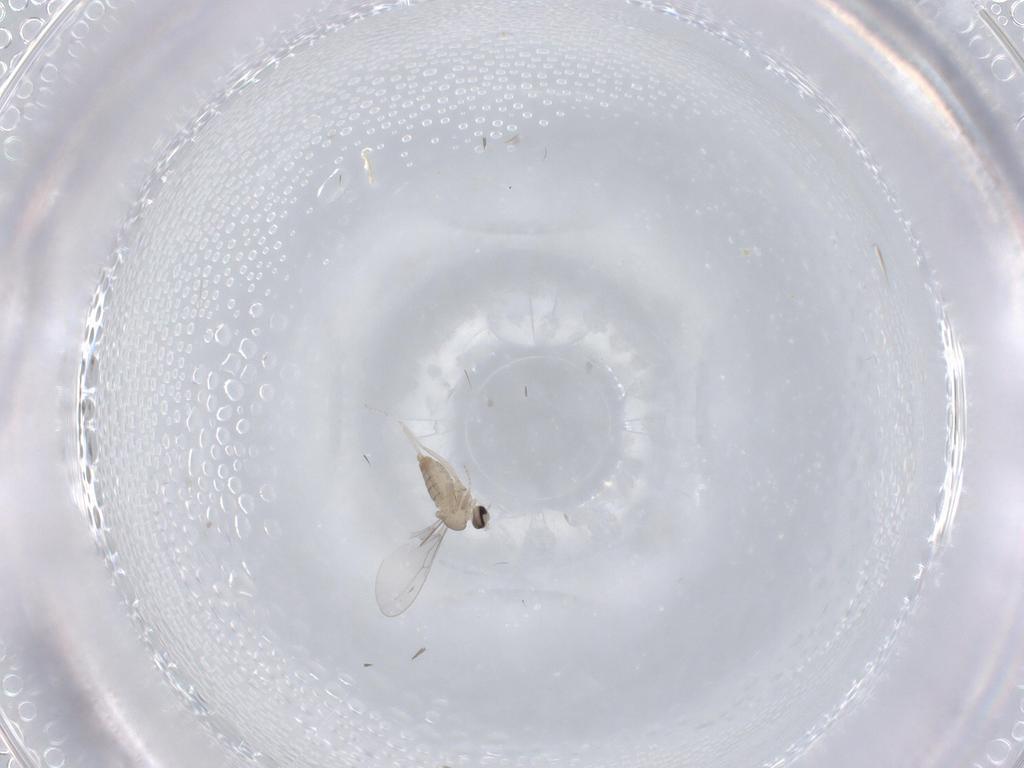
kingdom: Animalia
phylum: Arthropoda
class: Insecta
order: Diptera
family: Cecidomyiidae
